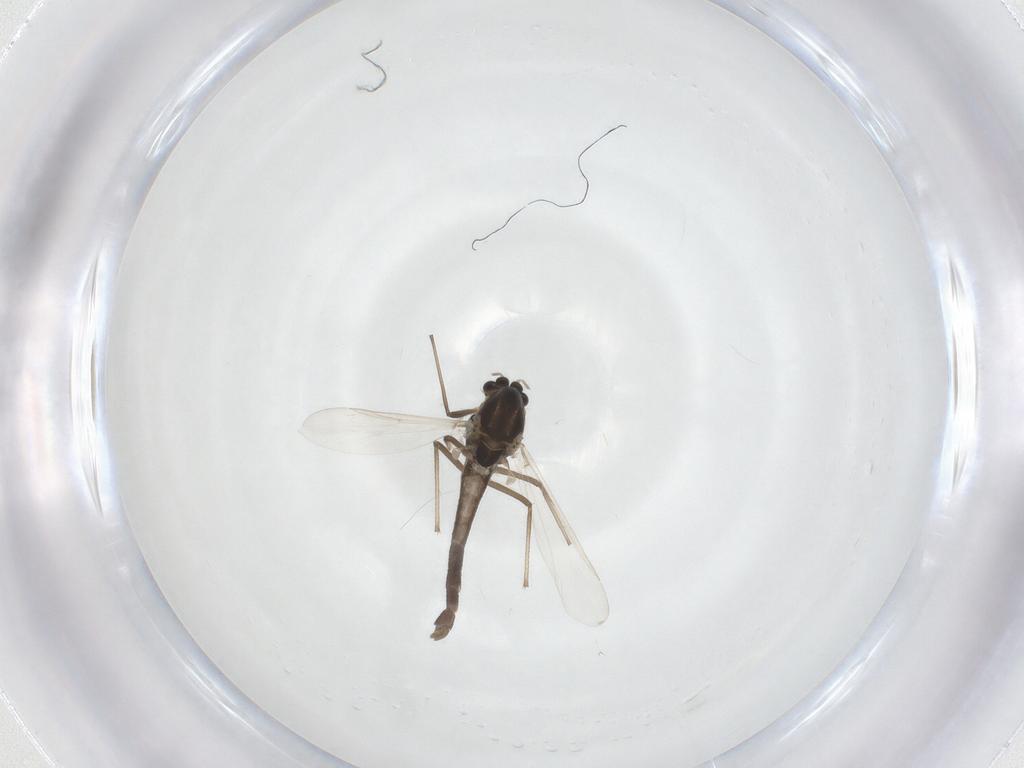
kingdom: Animalia
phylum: Arthropoda
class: Insecta
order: Diptera
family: Chironomidae
